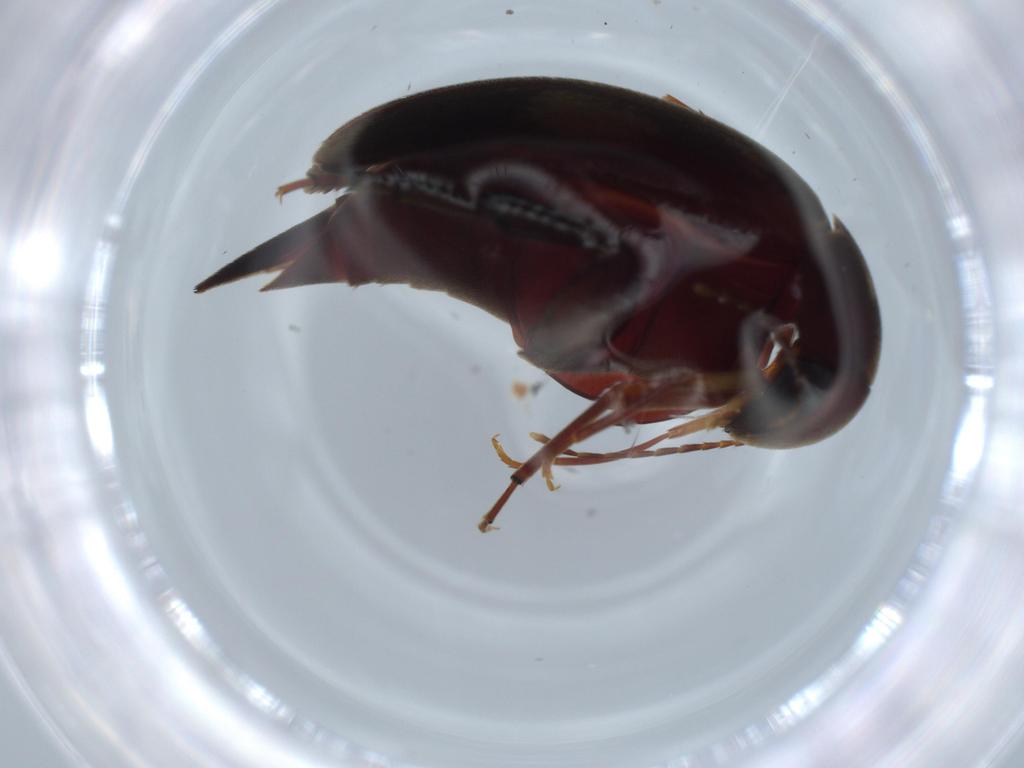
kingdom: Animalia
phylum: Arthropoda
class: Insecta
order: Coleoptera
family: Mordellidae
